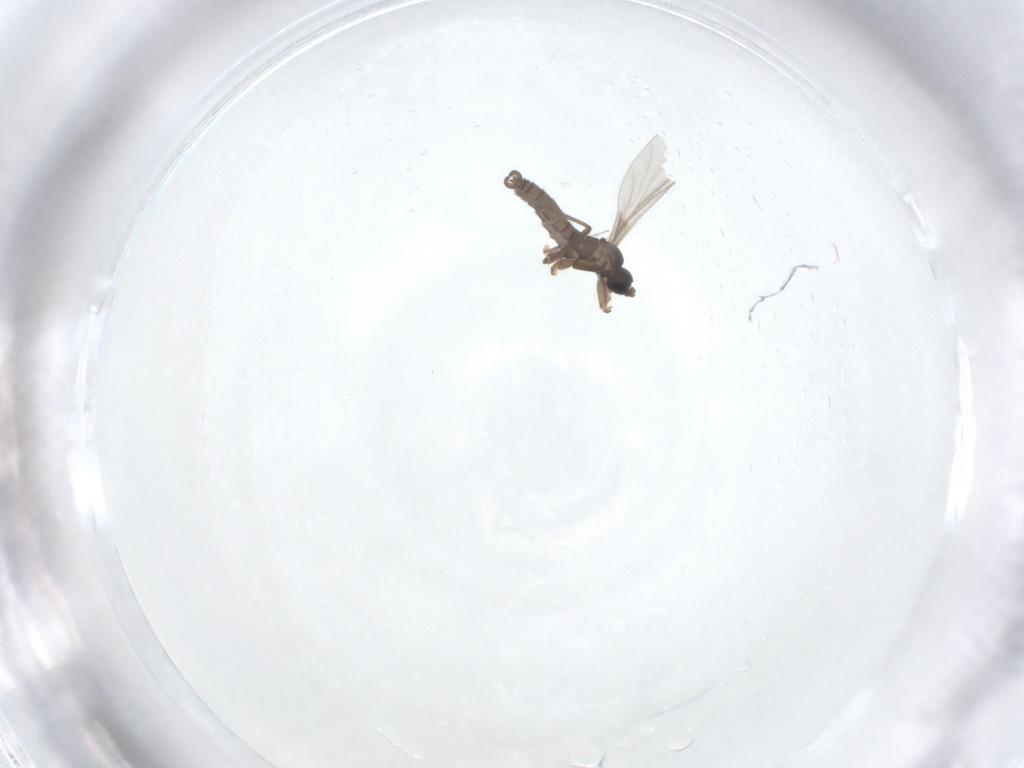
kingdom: Animalia
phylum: Arthropoda
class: Insecta
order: Diptera
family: Sciaridae
